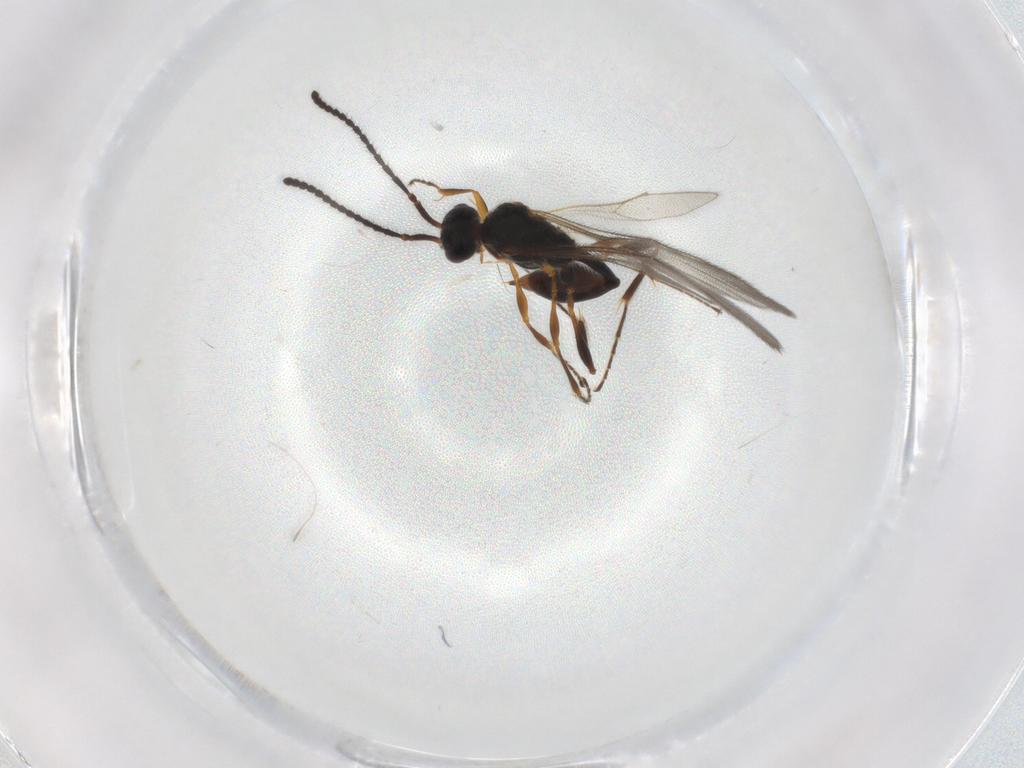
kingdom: Animalia
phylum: Arthropoda
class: Insecta
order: Hymenoptera
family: Diapriidae
